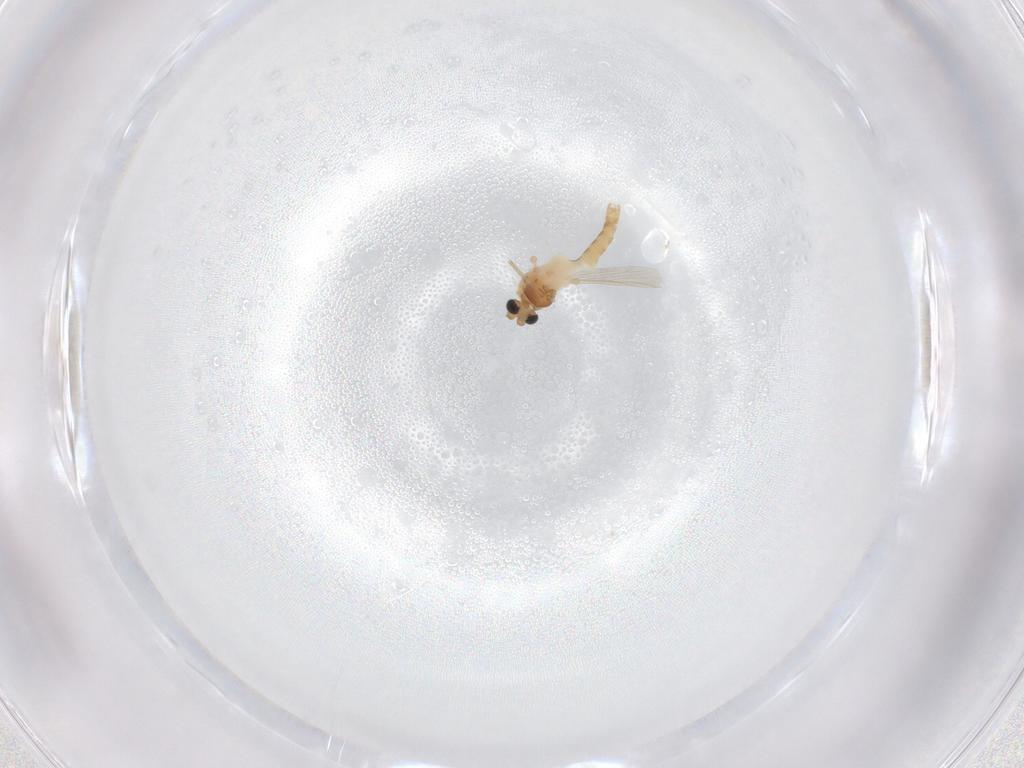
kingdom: Animalia
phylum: Arthropoda
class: Insecta
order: Diptera
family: Chironomidae
